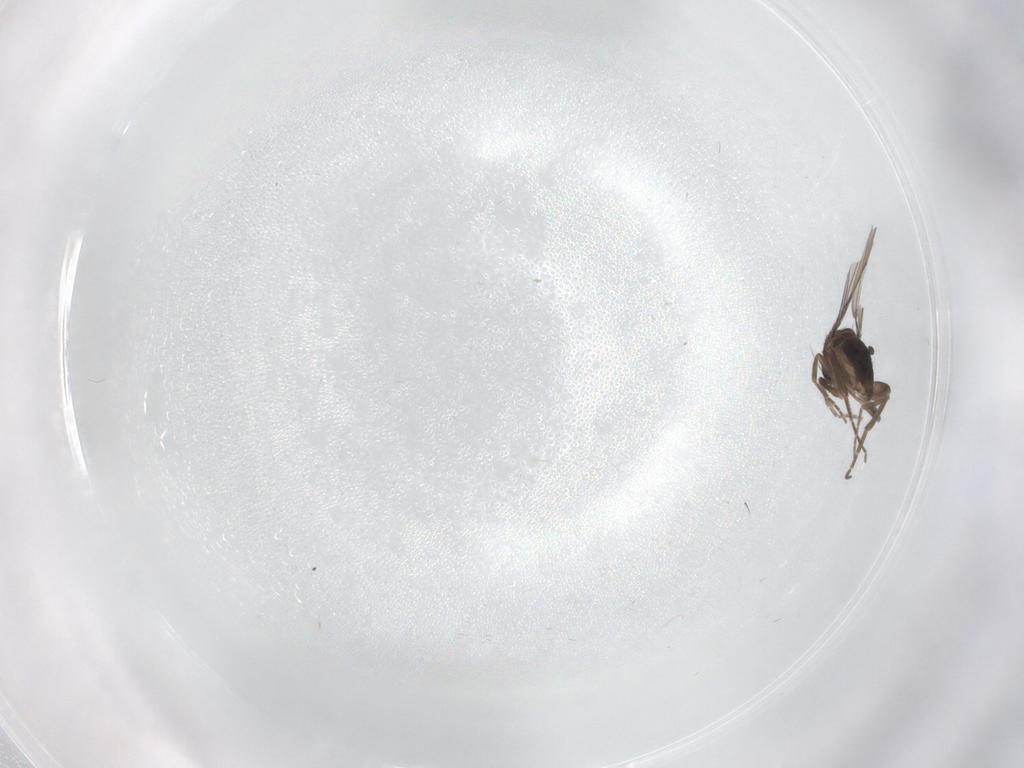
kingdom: Animalia
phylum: Arthropoda
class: Insecta
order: Diptera
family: Phoridae
